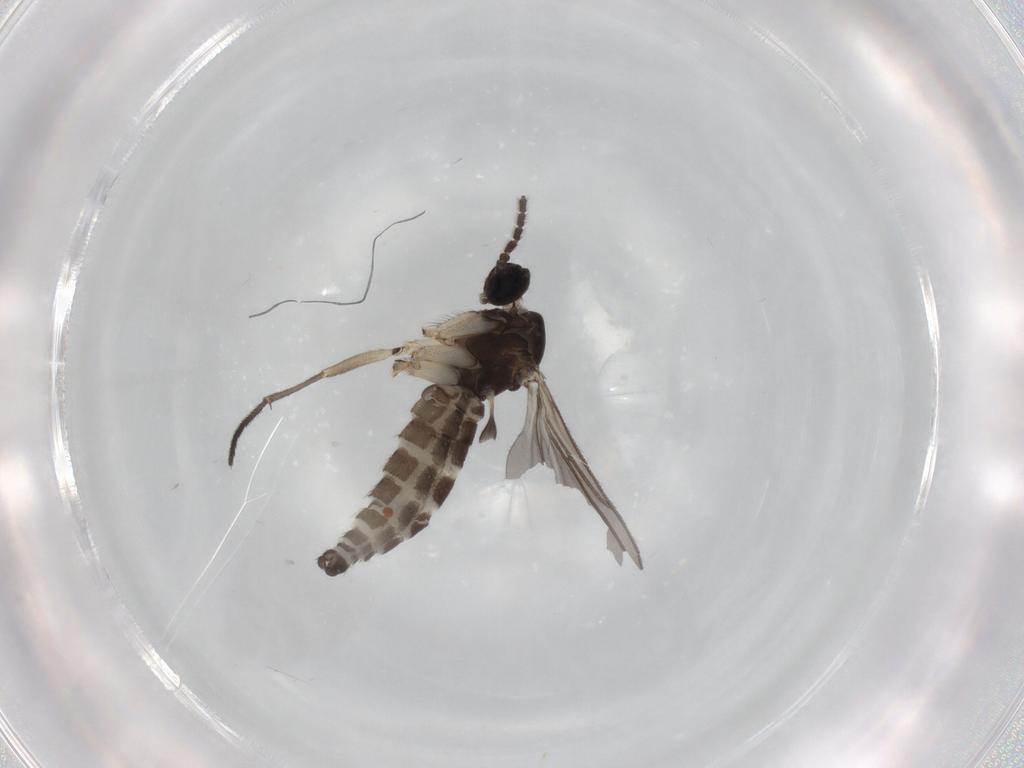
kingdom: Animalia
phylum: Arthropoda
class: Insecta
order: Diptera
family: Sciaridae
